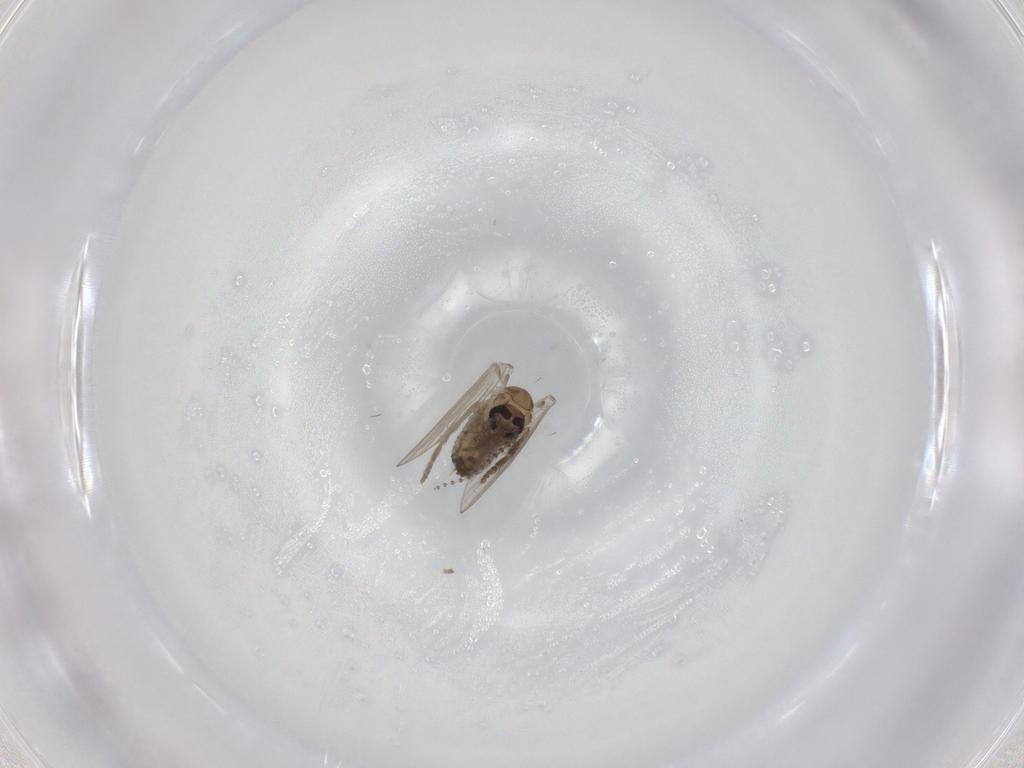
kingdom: Animalia
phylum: Arthropoda
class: Insecta
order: Diptera
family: Psychodidae
